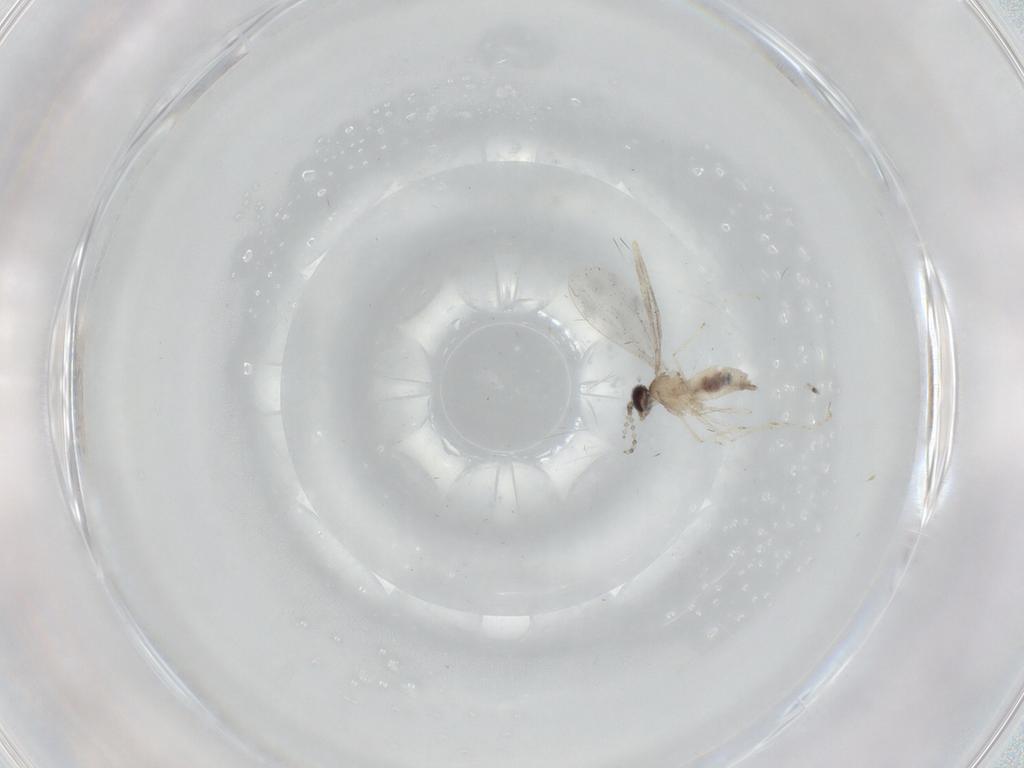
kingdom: Animalia
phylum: Arthropoda
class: Insecta
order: Diptera
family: Cecidomyiidae
